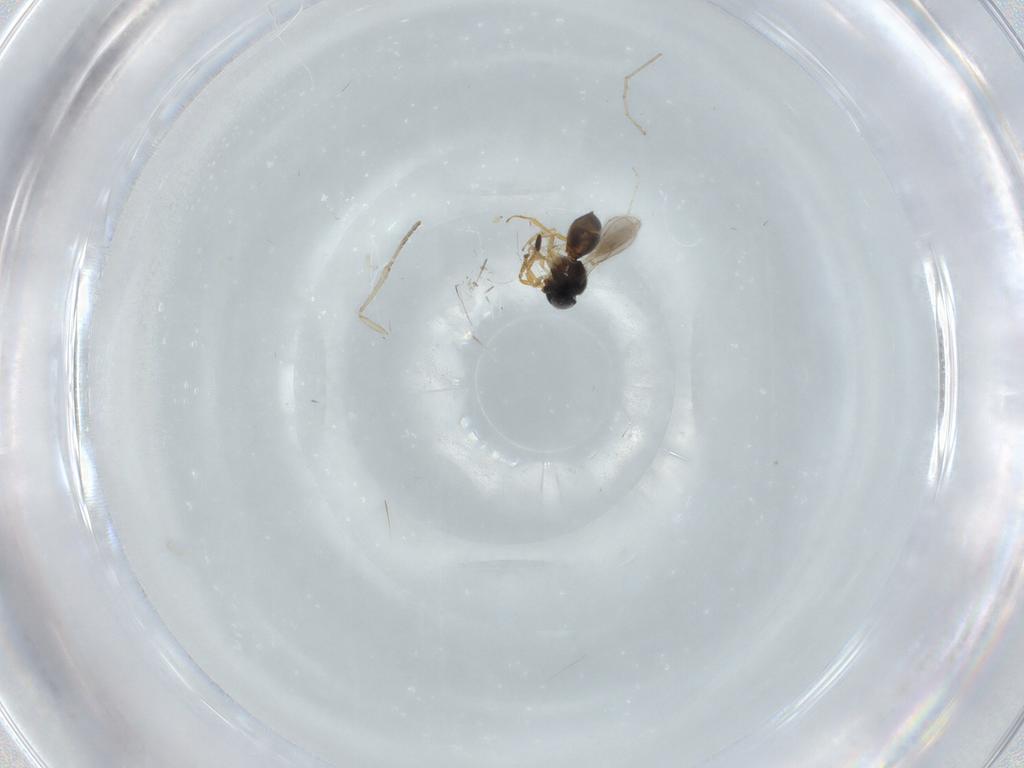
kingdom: Animalia
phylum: Arthropoda
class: Insecta
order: Hymenoptera
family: Scelionidae
